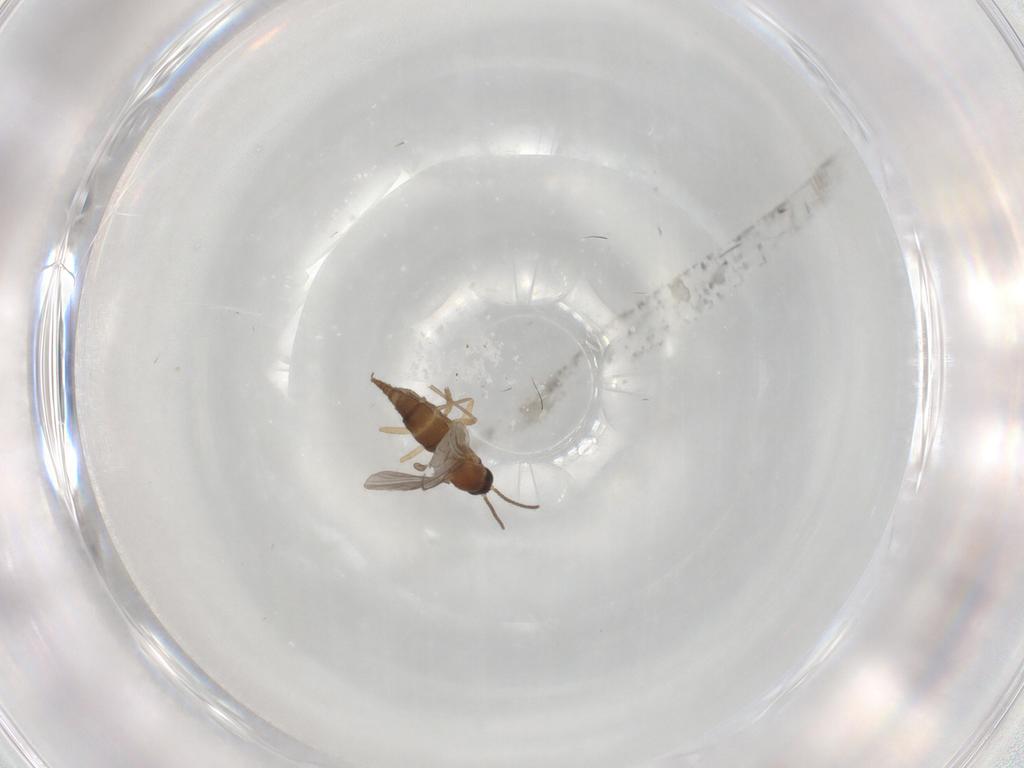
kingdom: Animalia
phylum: Arthropoda
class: Insecta
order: Diptera
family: Sciaridae
